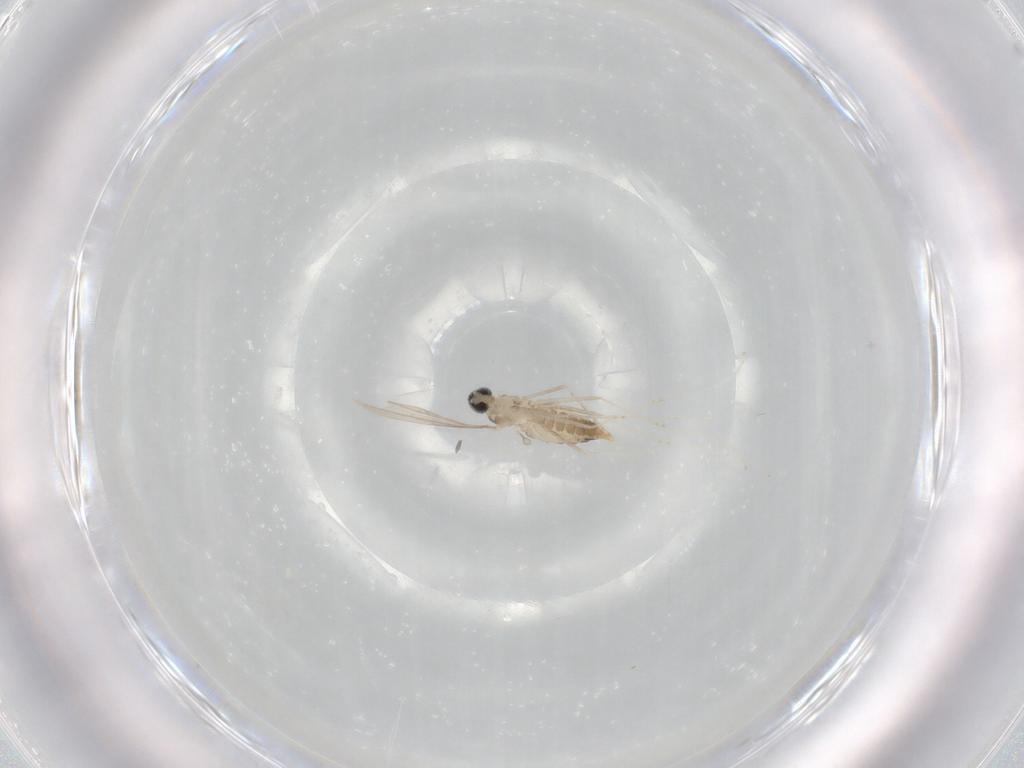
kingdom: Animalia
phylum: Arthropoda
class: Insecta
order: Diptera
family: Cecidomyiidae
